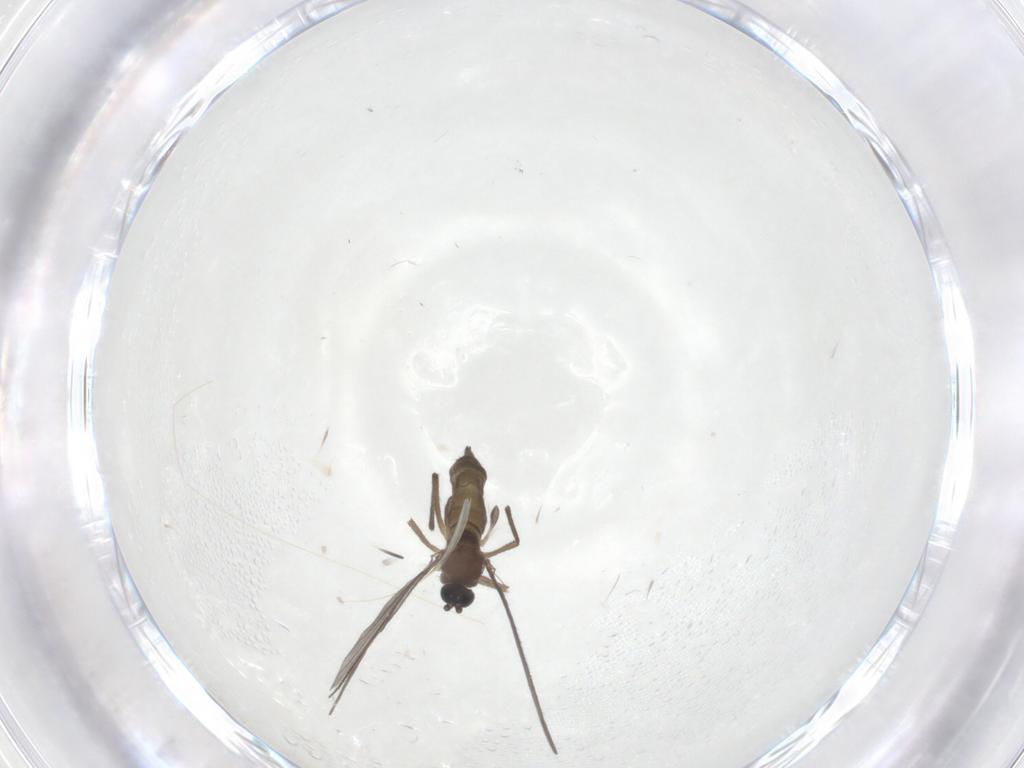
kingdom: Animalia
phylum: Arthropoda
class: Insecta
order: Diptera
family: Sciaridae
